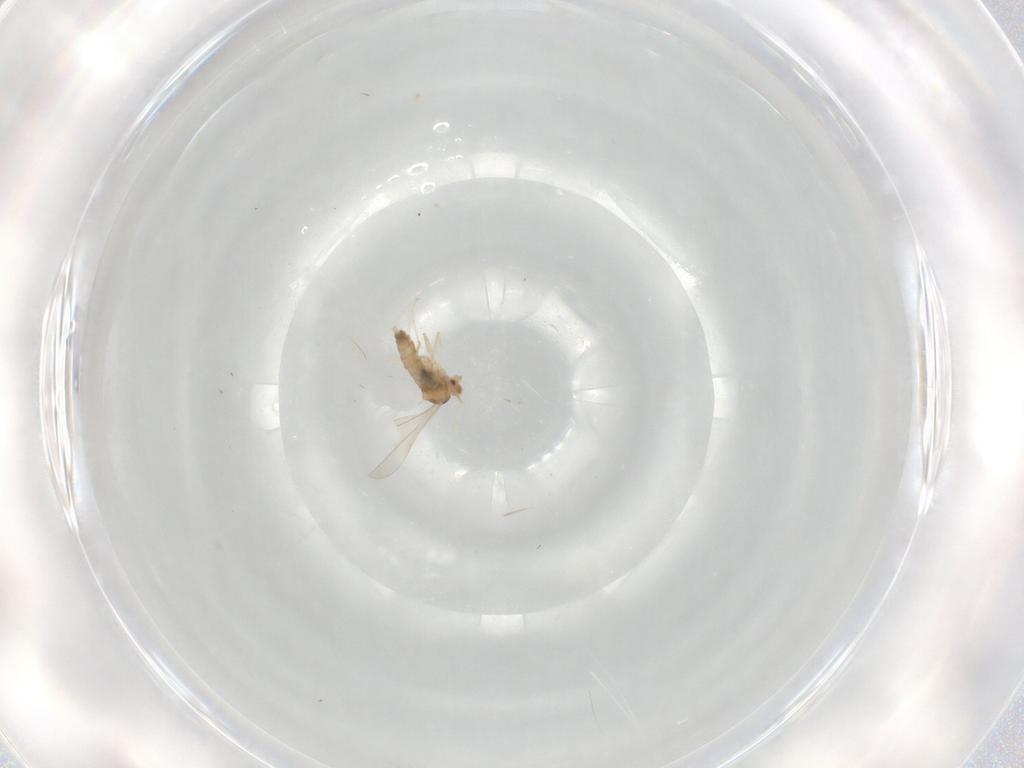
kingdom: Animalia
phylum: Arthropoda
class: Insecta
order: Diptera
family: Cecidomyiidae
